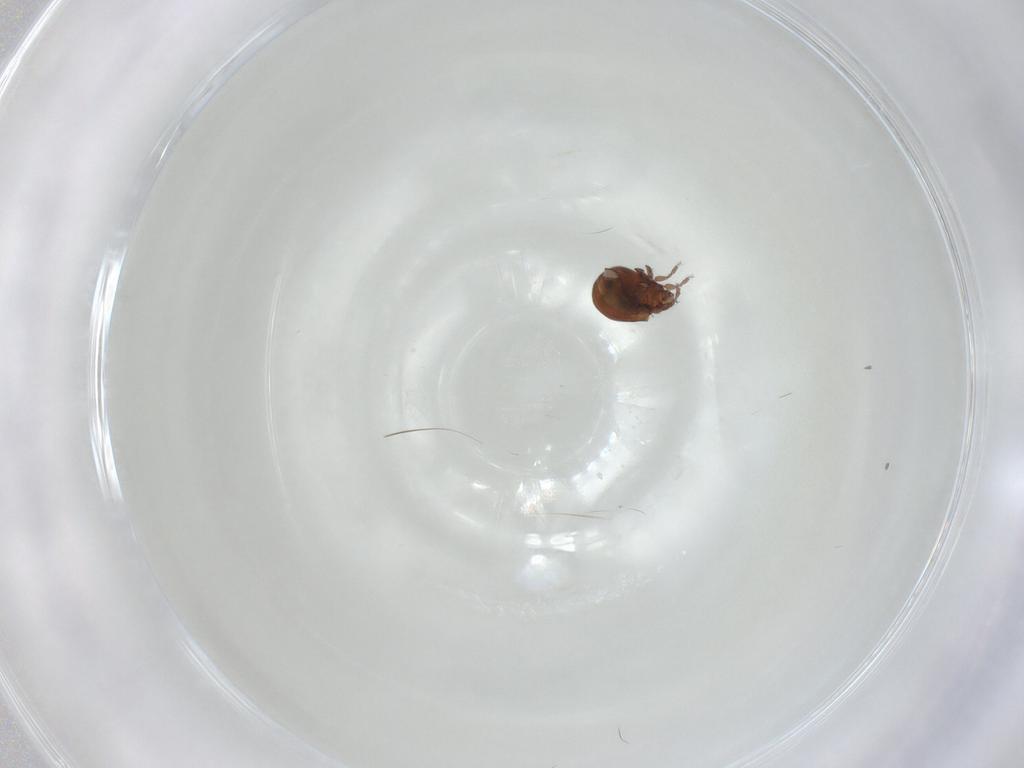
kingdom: Animalia
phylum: Arthropoda
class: Arachnida
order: Sarcoptiformes
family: Humerobatidae
